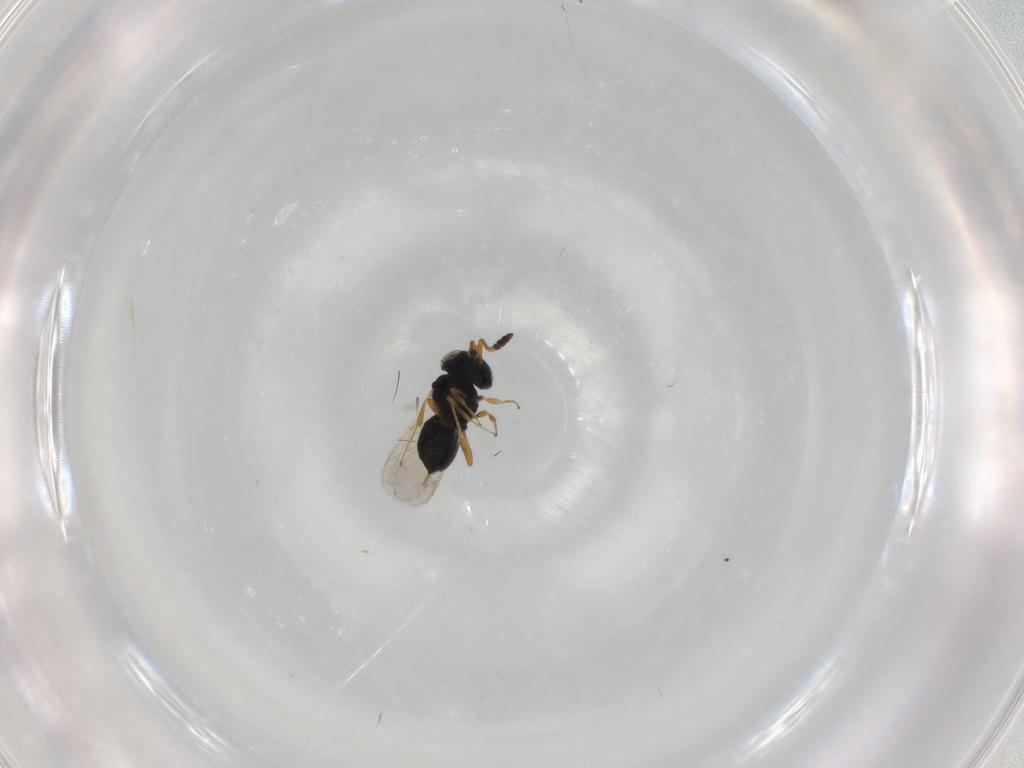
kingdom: Animalia
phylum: Arthropoda
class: Insecta
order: Hymenoptera
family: Scelionidae
